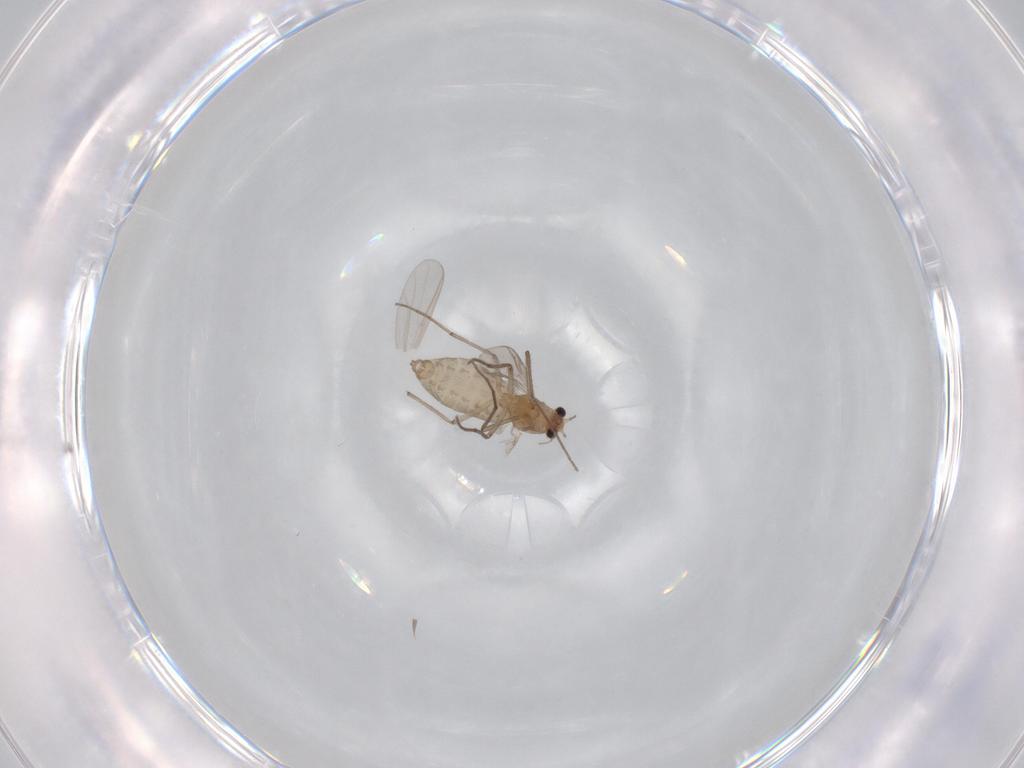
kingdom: Animalia
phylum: Arthropoda
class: Insecta
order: Diptera
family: Chironomidae
